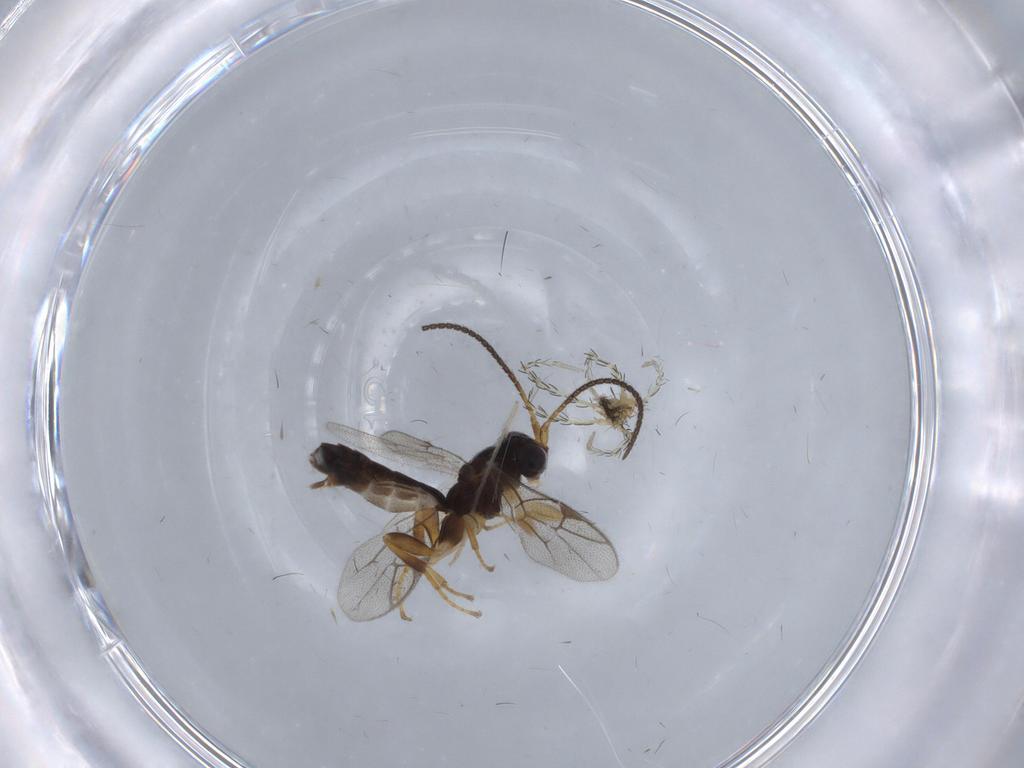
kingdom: Animalia
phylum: Arthropoda
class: Arachnida
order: Trombidiformes
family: Erythraeidae
